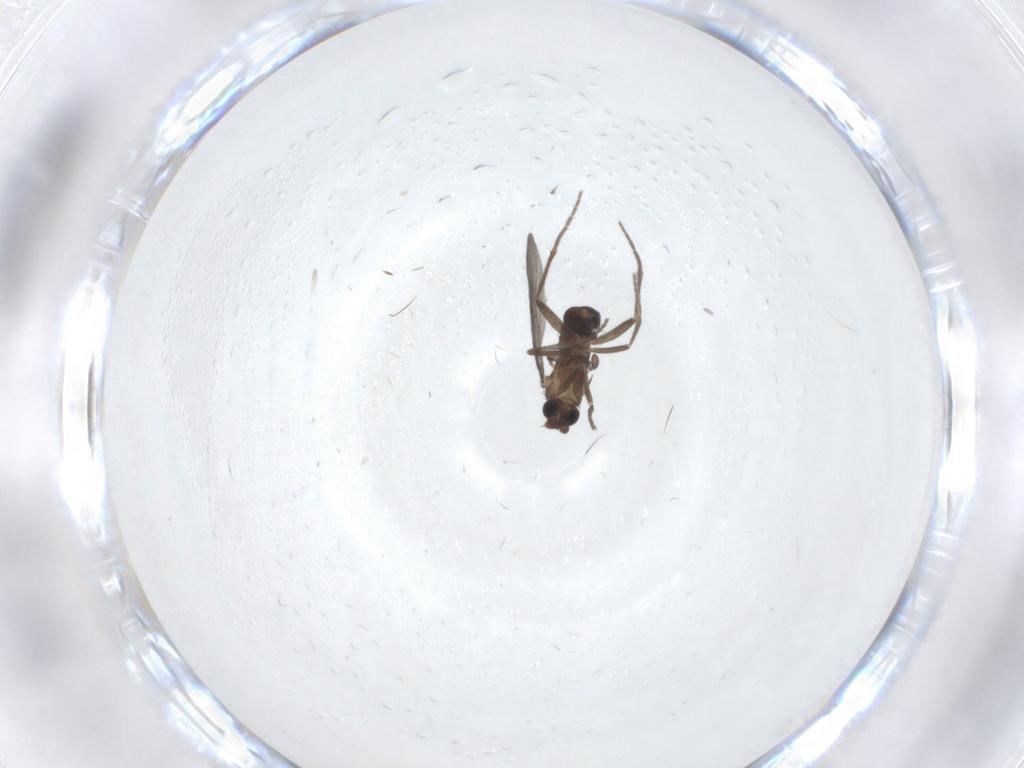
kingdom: Animalia
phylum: Arthropoda
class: Insecta
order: Diptera
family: Phoridae
